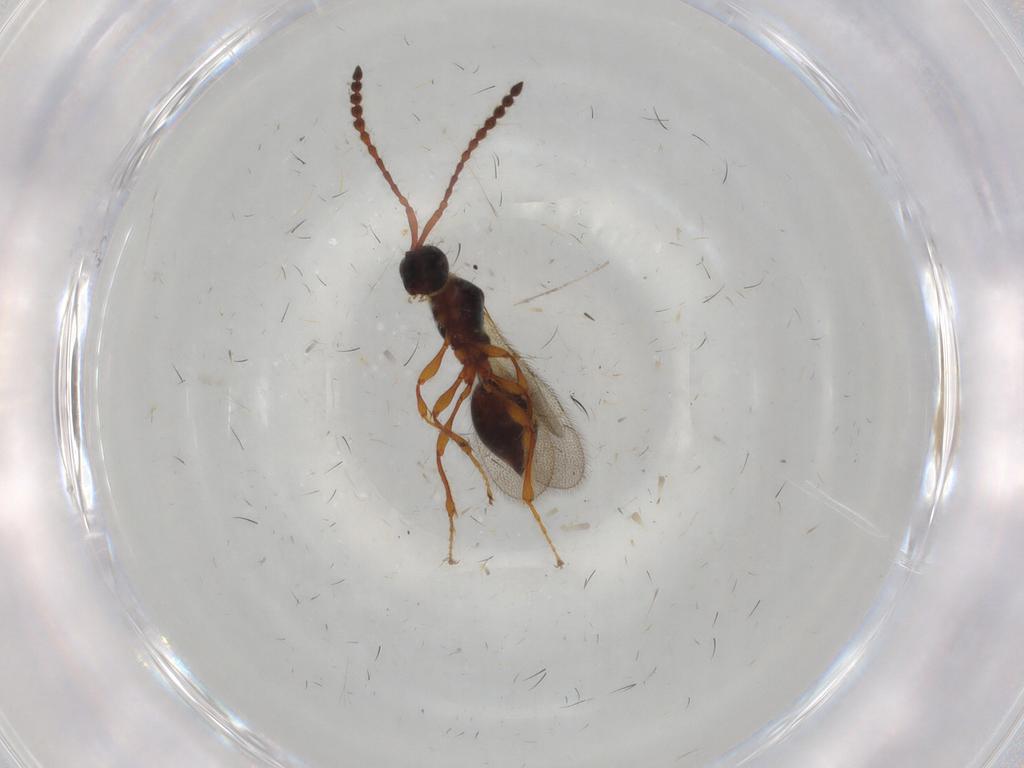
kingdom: Animalia
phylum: Arthropoda
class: Insecta
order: Hymenoptera
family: Diapriidae
